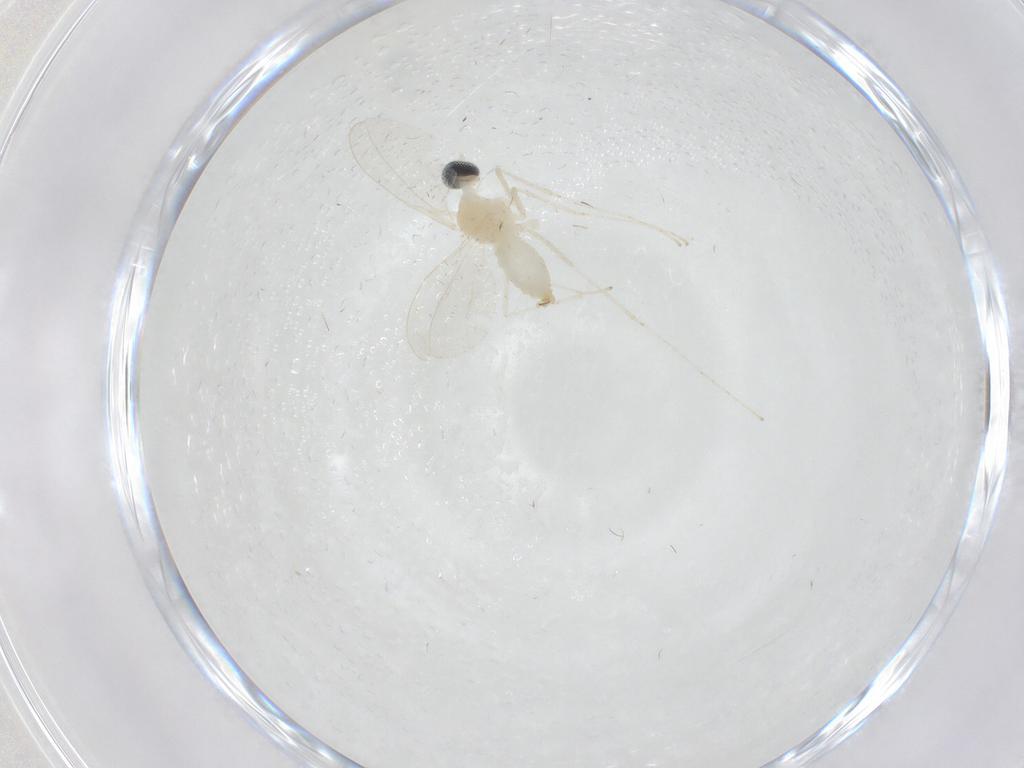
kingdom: Animalia
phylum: Arthropoda
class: Insecta
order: Diptera
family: Cecidomyiidae
